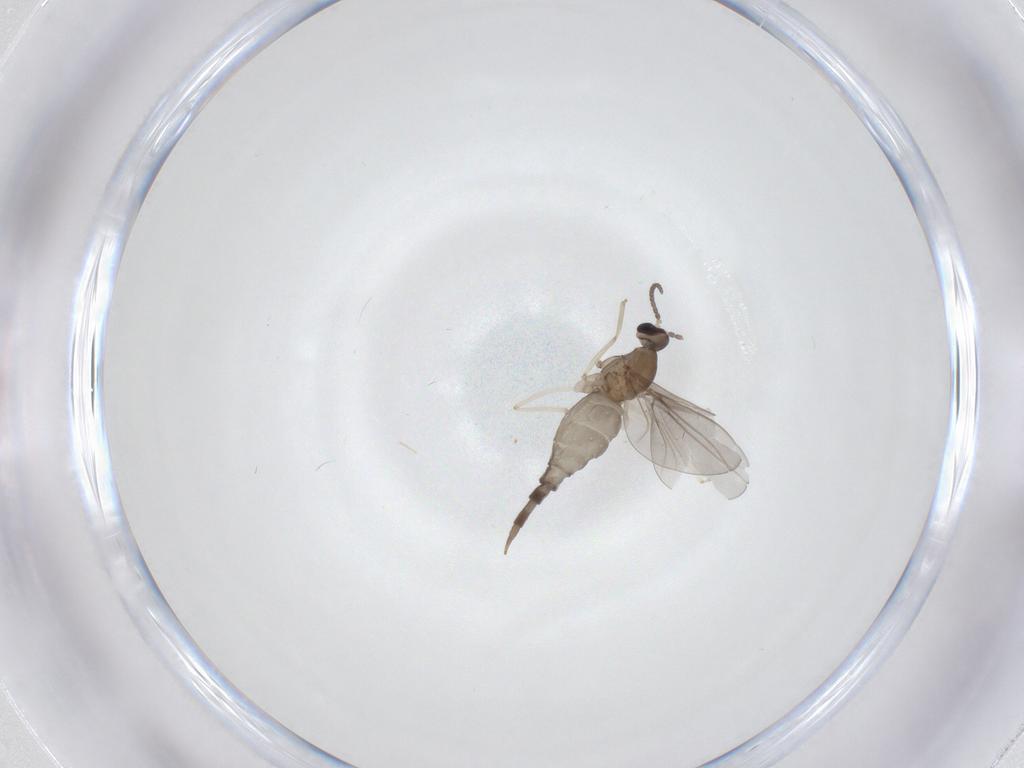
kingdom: Animalia
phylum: Arthropoda
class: Insecta
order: Diptera
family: Cecidomyiidae
